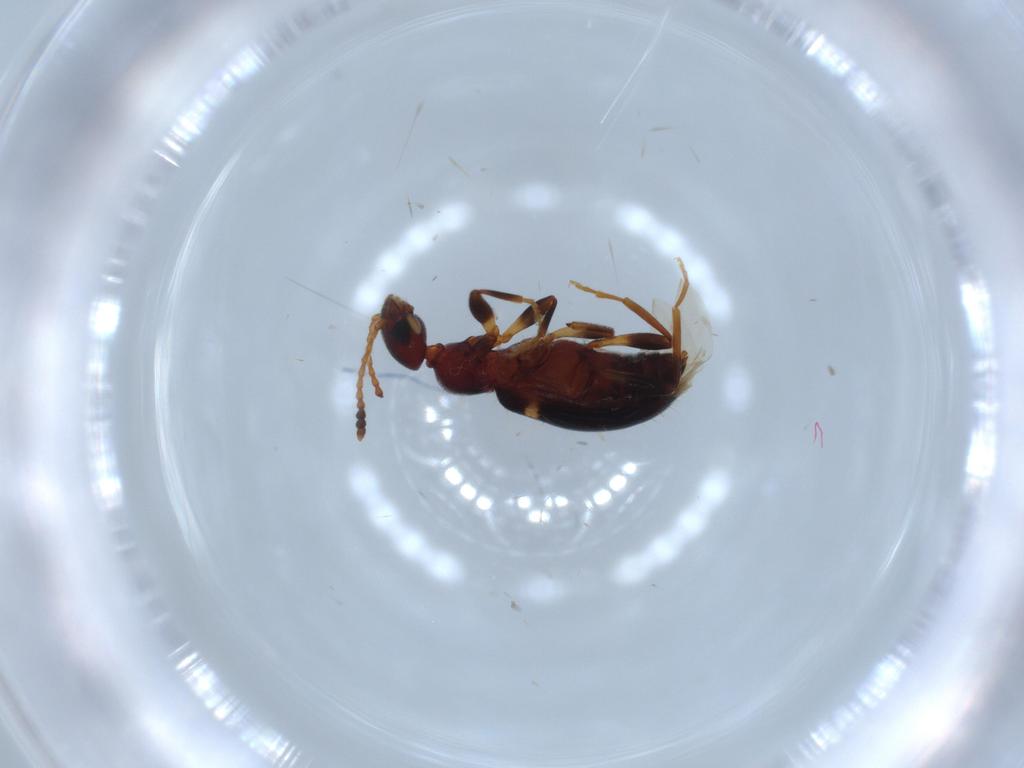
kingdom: Animalia
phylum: Arthropoda
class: Insecta
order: Coleoptera
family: Anthicidae
